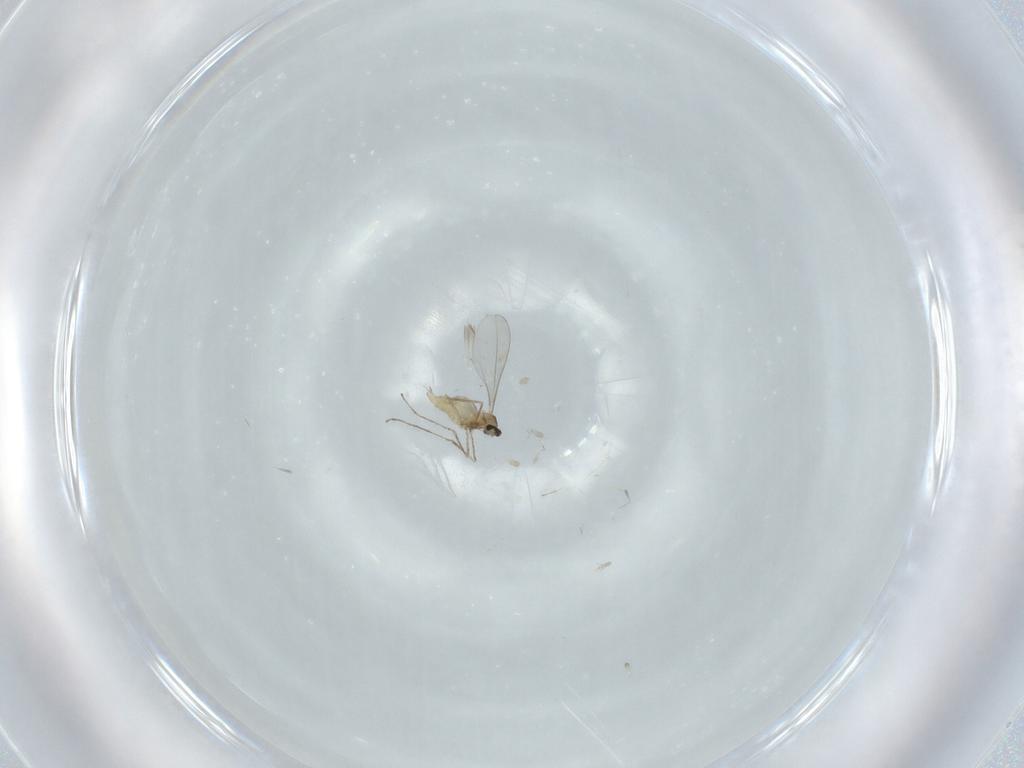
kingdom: Animalia
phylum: Arthropoda
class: Insecta
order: Diptera
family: Cecidomyiidae
